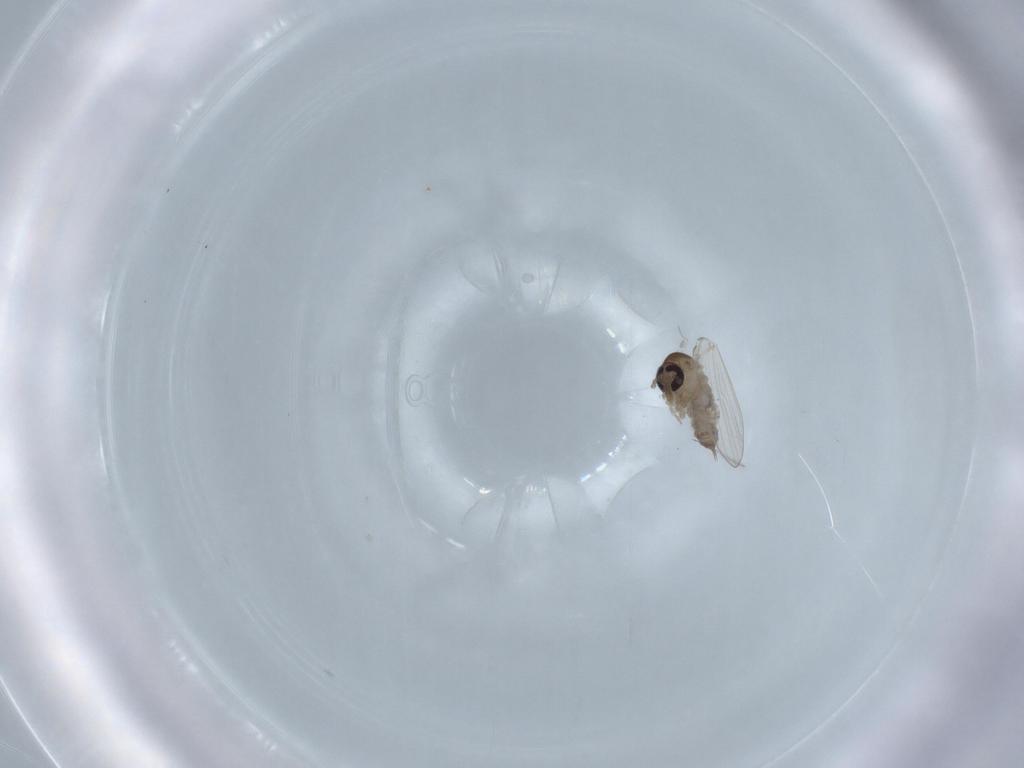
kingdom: Animalia
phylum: Arthropoda
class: Insecta
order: Diptera
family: Psychodidae
